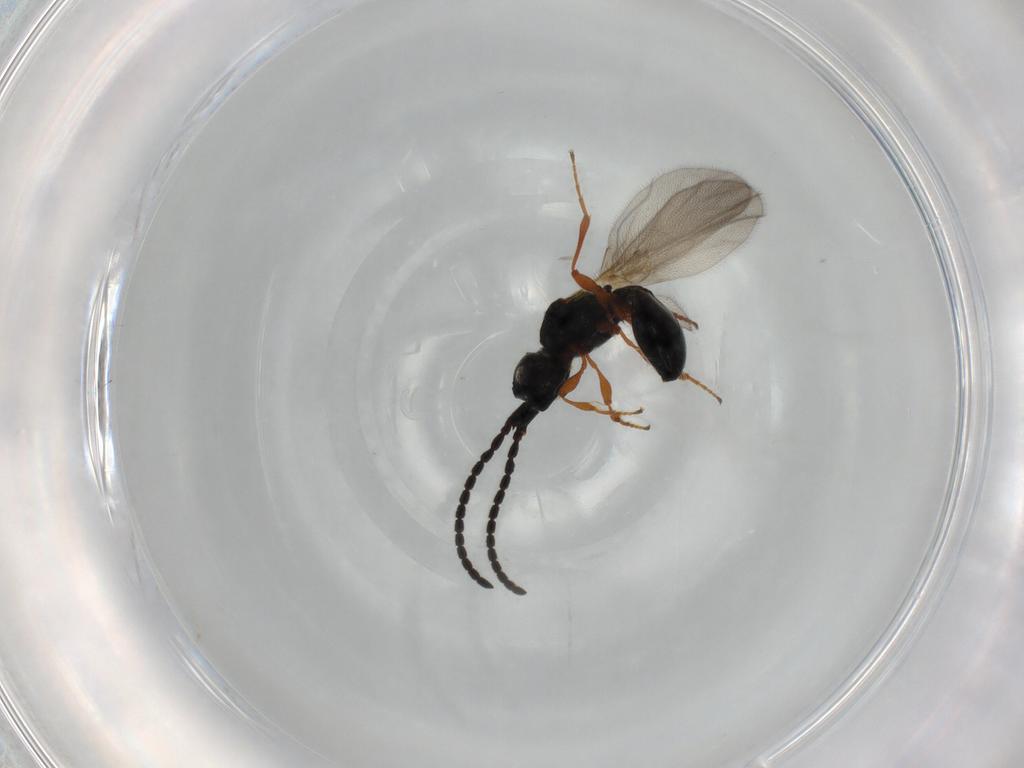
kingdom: Animalia
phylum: Arthropoda
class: Insecta
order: Hymenoptera
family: Diapriidae
